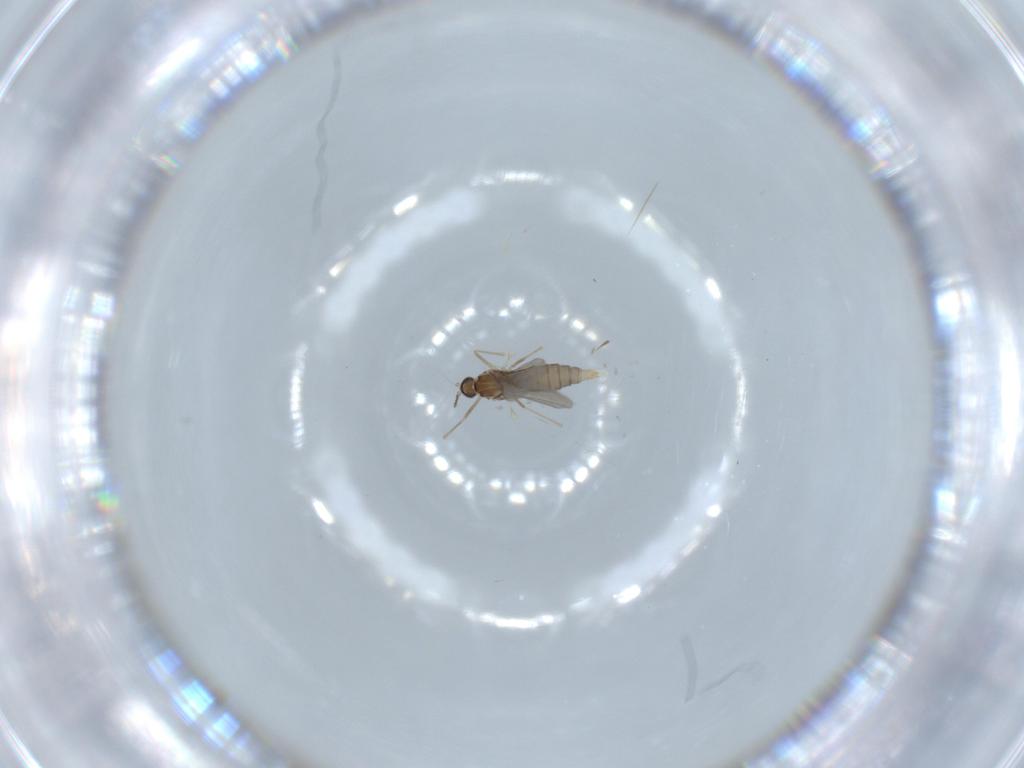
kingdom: Animalia
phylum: Arthropoda
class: Insecta
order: Diptera
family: Cecidomyiidae
